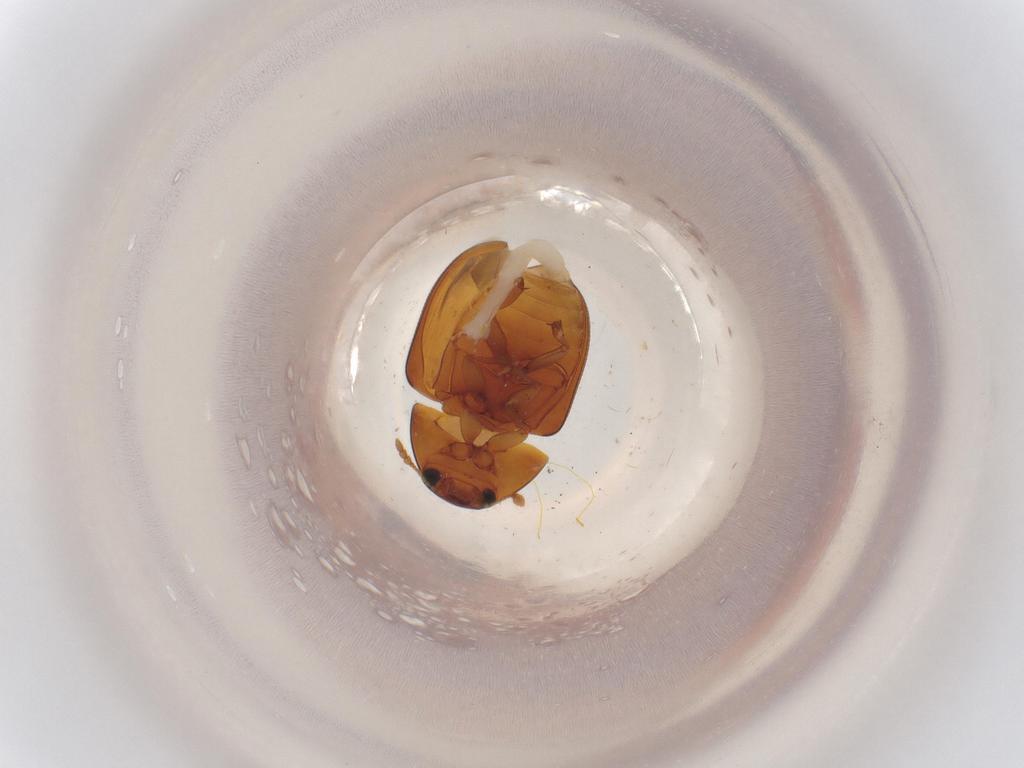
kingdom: Animalia
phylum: Arthropoda
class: Insecta
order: Coleoptera
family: Phalacridae
